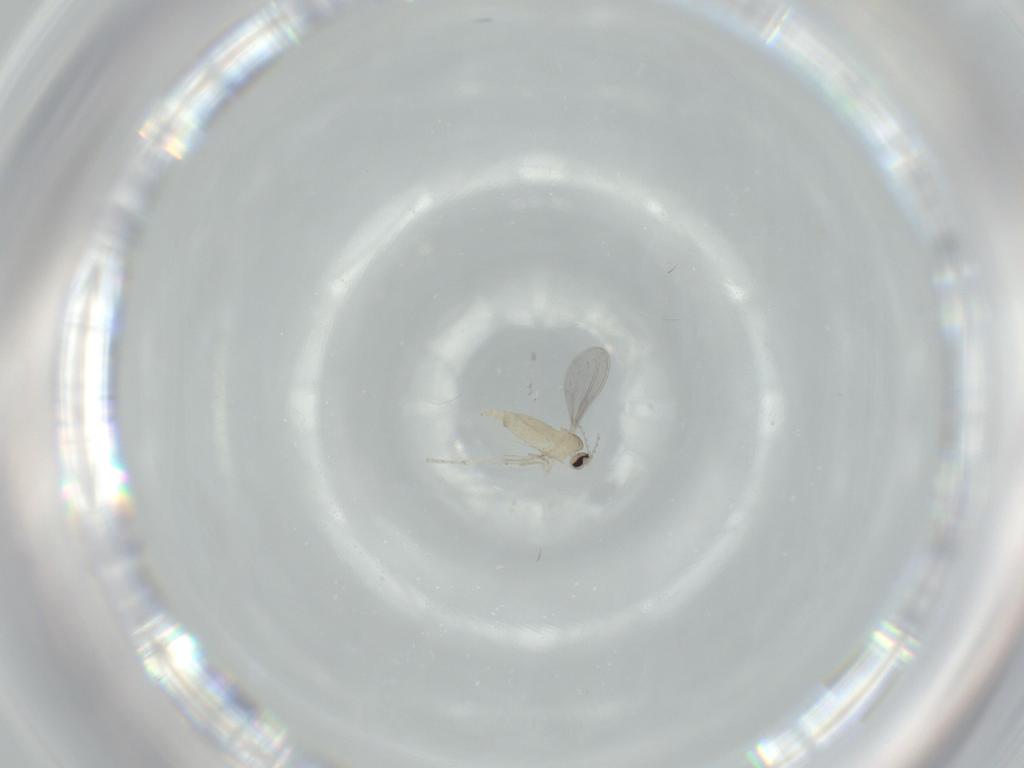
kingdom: Animalia
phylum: Arthropoda
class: Insecta
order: Diptera
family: Cecidomyiidae
